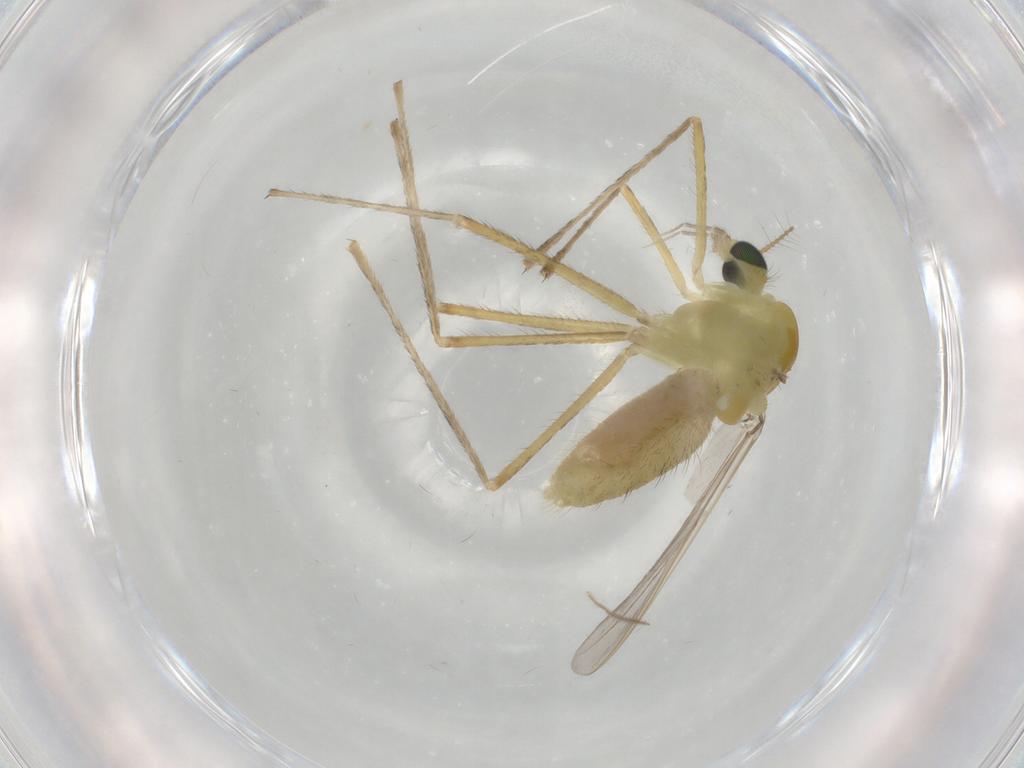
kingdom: Animalia
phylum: Arthropoda
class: Insecta
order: Diptera
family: Chironomidae
